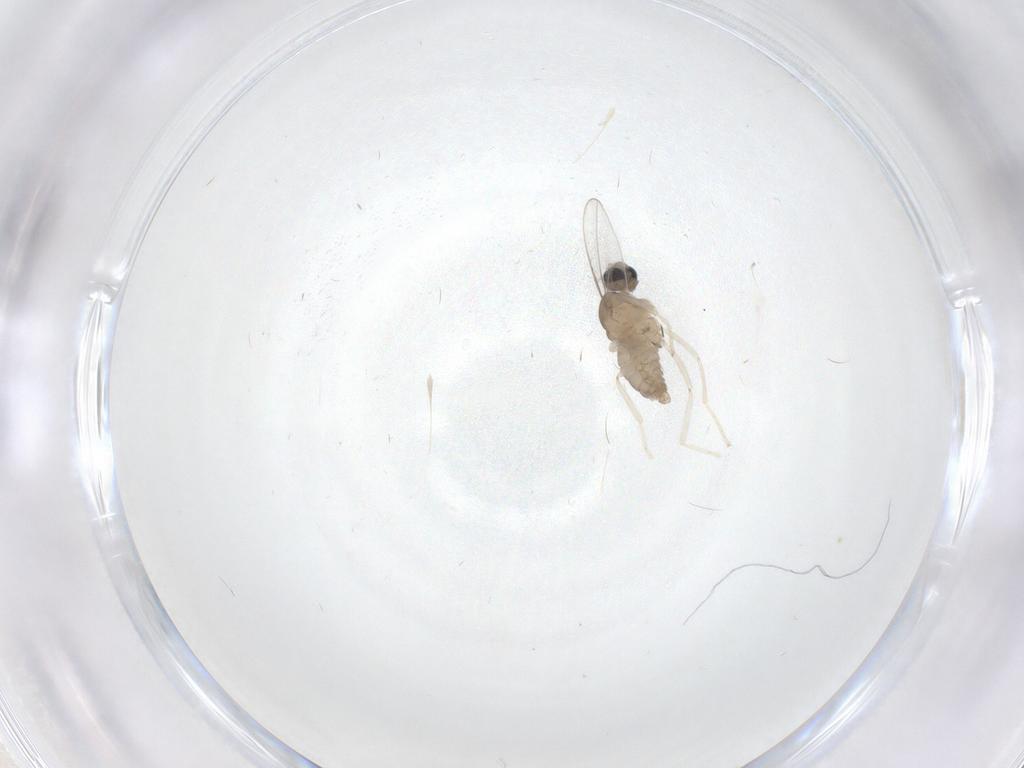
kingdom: Animalia
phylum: Arthropoda
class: Insecta
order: Diptera
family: Cecidomyiidae
